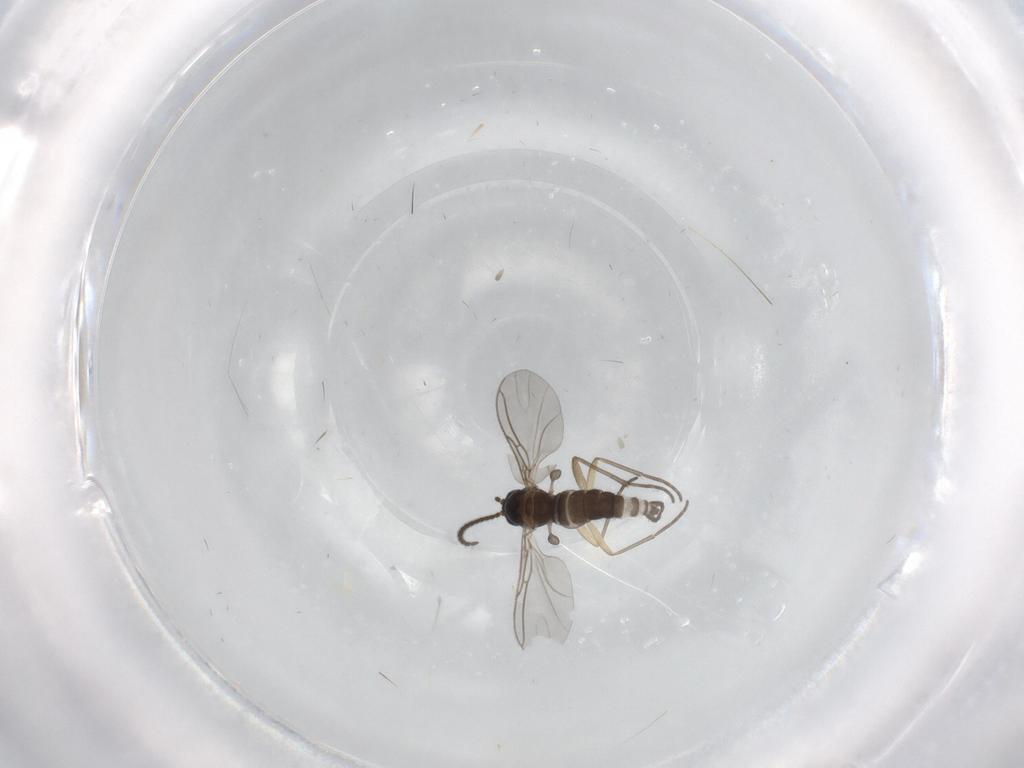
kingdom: Animalia
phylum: Arthropoda
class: Insecta
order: Diptera
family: Sciaridae
